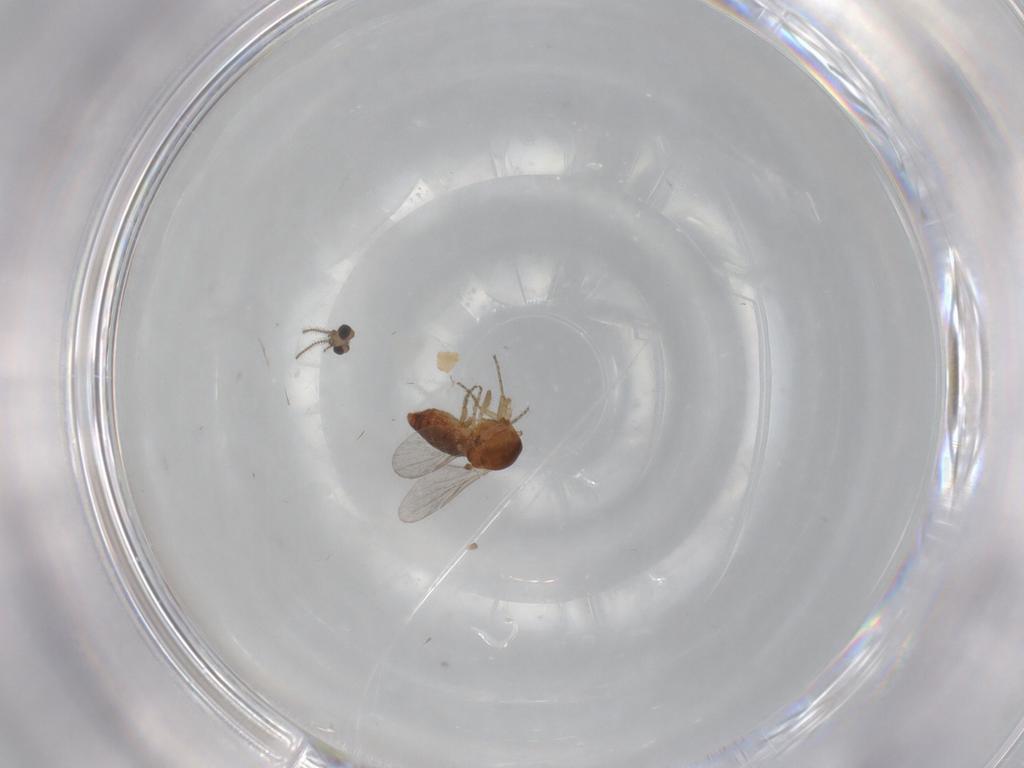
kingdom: Animalia
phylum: Arthropoda
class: Insecta
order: Diptera
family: Ceratopogonidae
